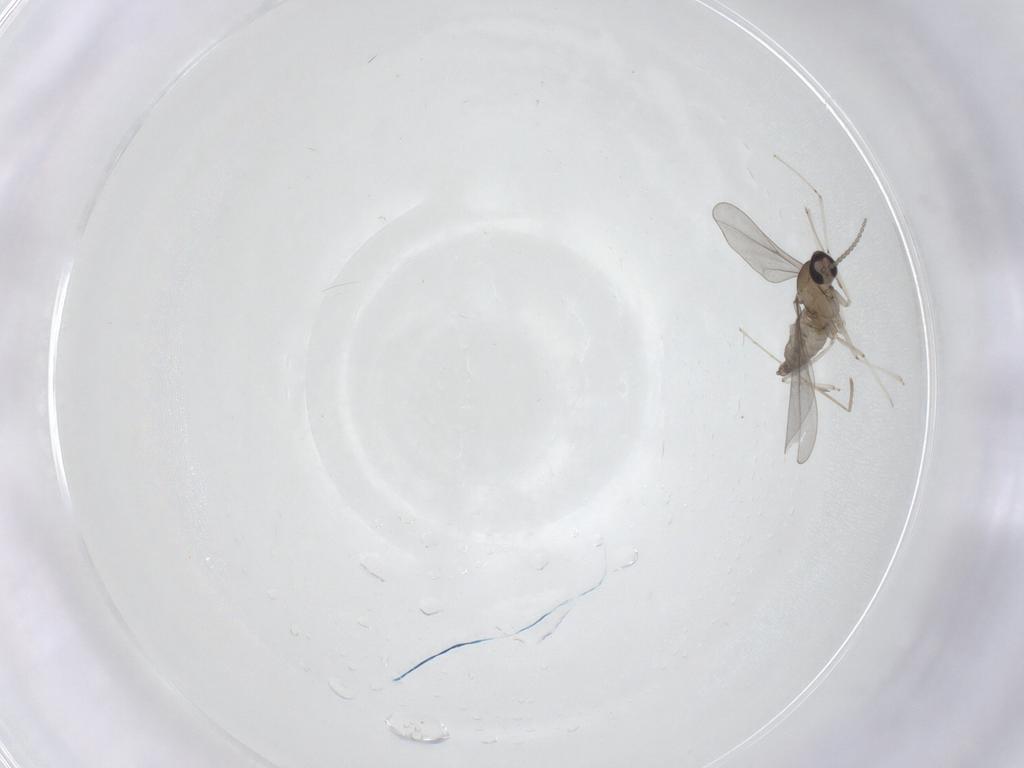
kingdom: Animalia
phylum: Arthropoda
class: Insecta
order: Diptera
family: Cecidomyiidae
